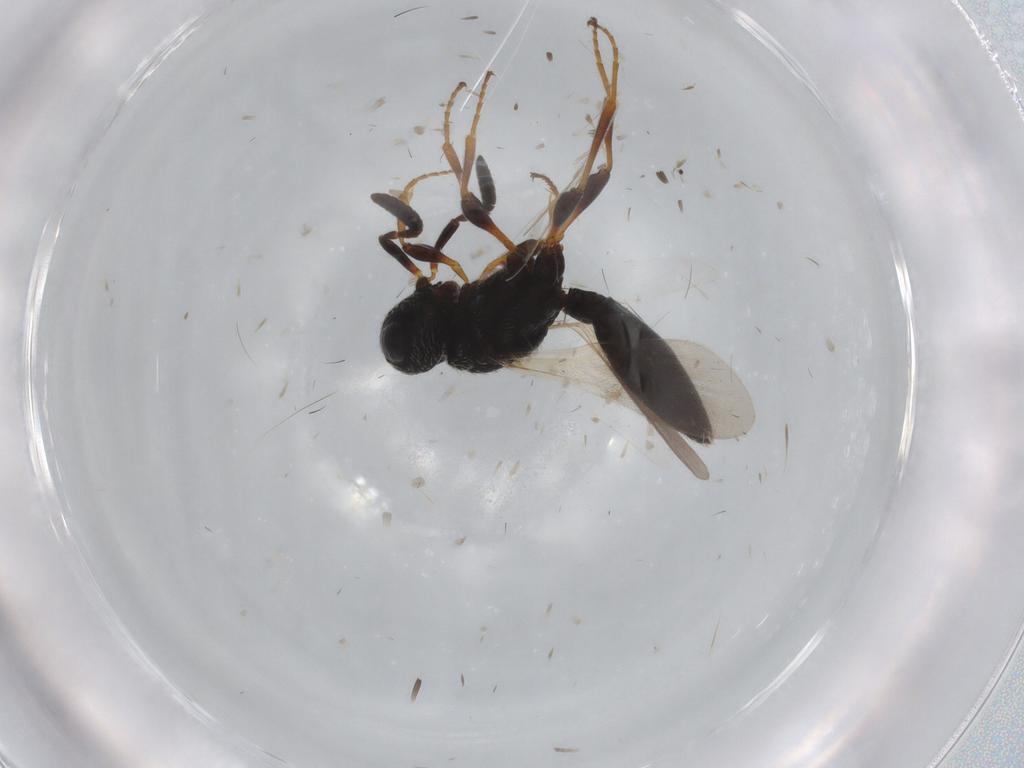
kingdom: Animalia
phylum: Arthropoda
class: Insecta
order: Hymenoptera
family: Scelionidae
